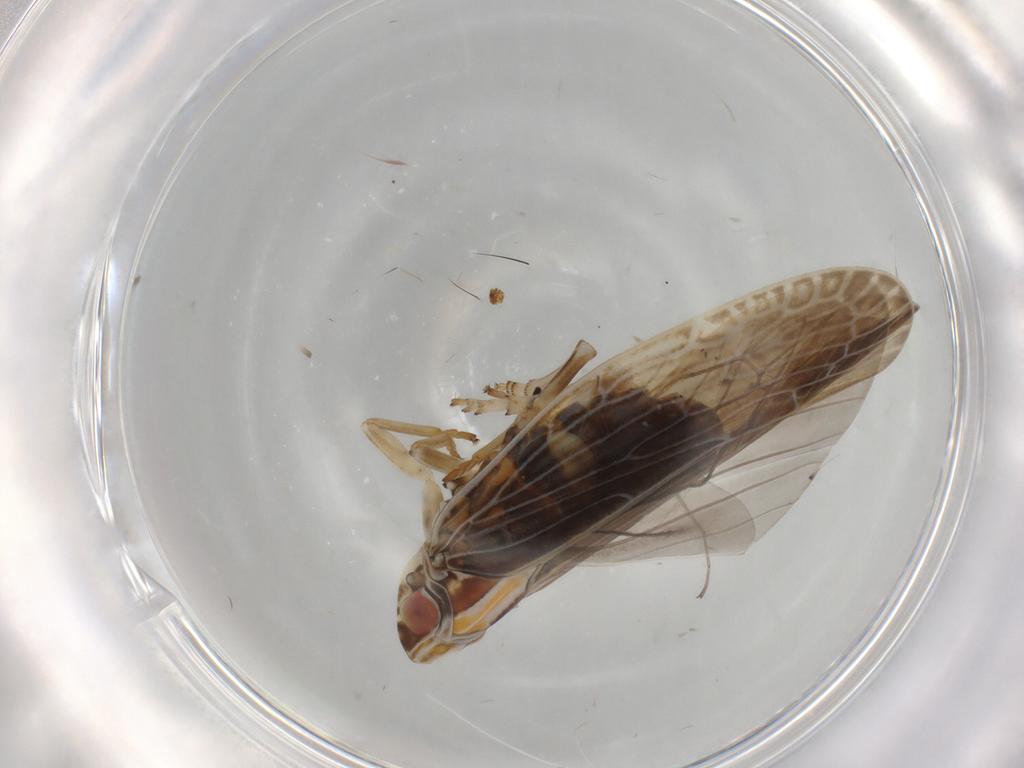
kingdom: Animalia
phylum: Arthropoda
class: Insecta
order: Hemiptera
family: Achilidae
